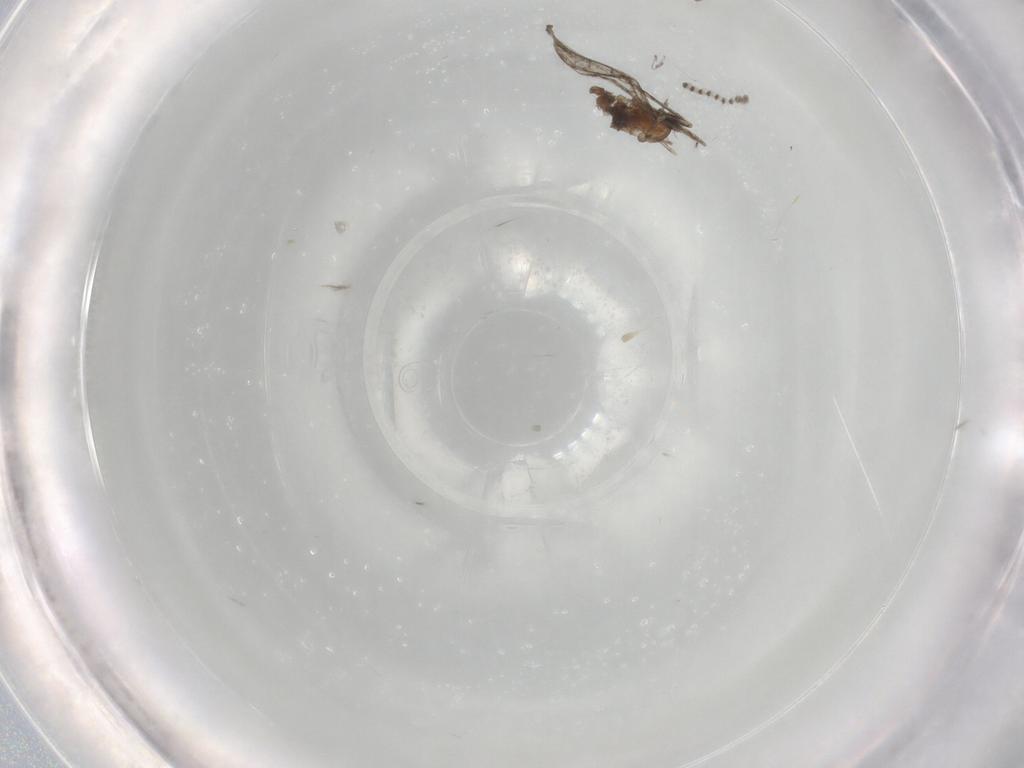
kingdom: Animalia
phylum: Arthropoda
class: Insecta
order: Diptera
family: Psychodidae
